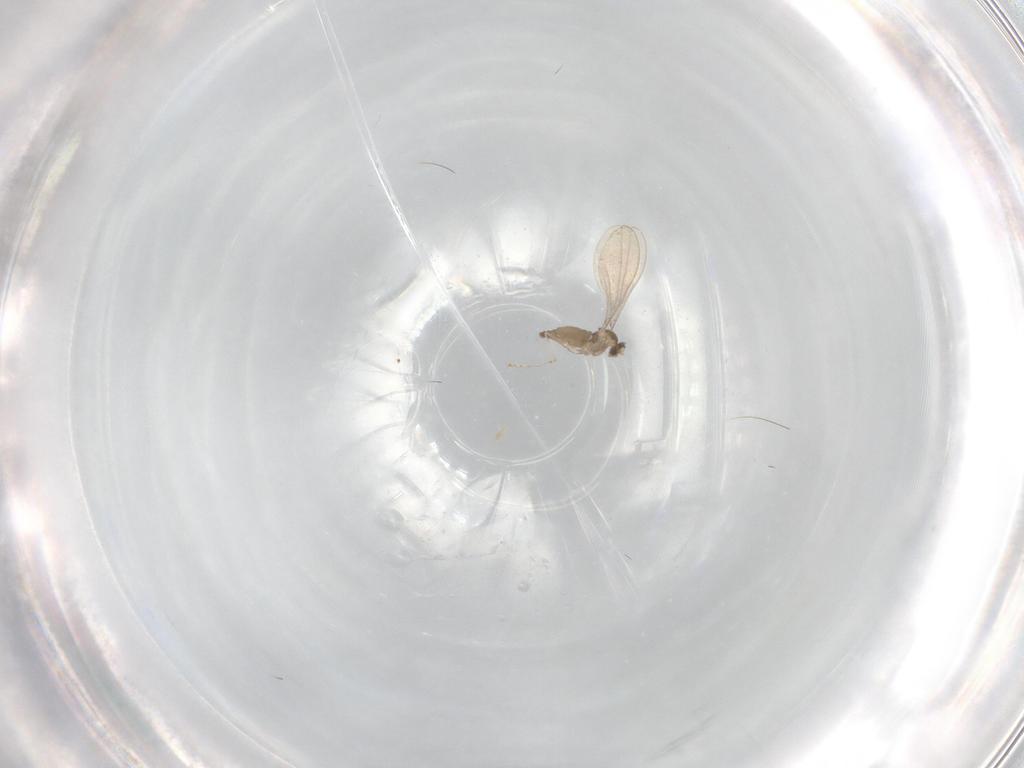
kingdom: Animalia
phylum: Arthropoda
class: Insecta
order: Diptera
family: Cecidomyiidae
